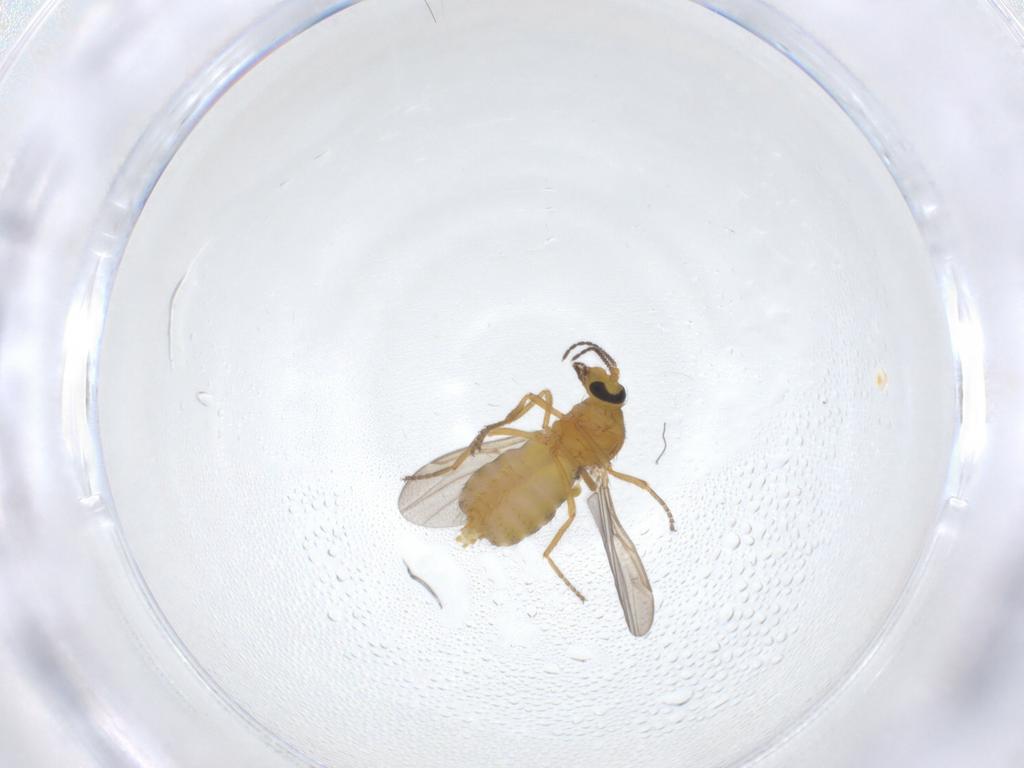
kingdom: Animalia
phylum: Arthropoda
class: Insecta
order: Diptera
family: Ceratopogonidae
